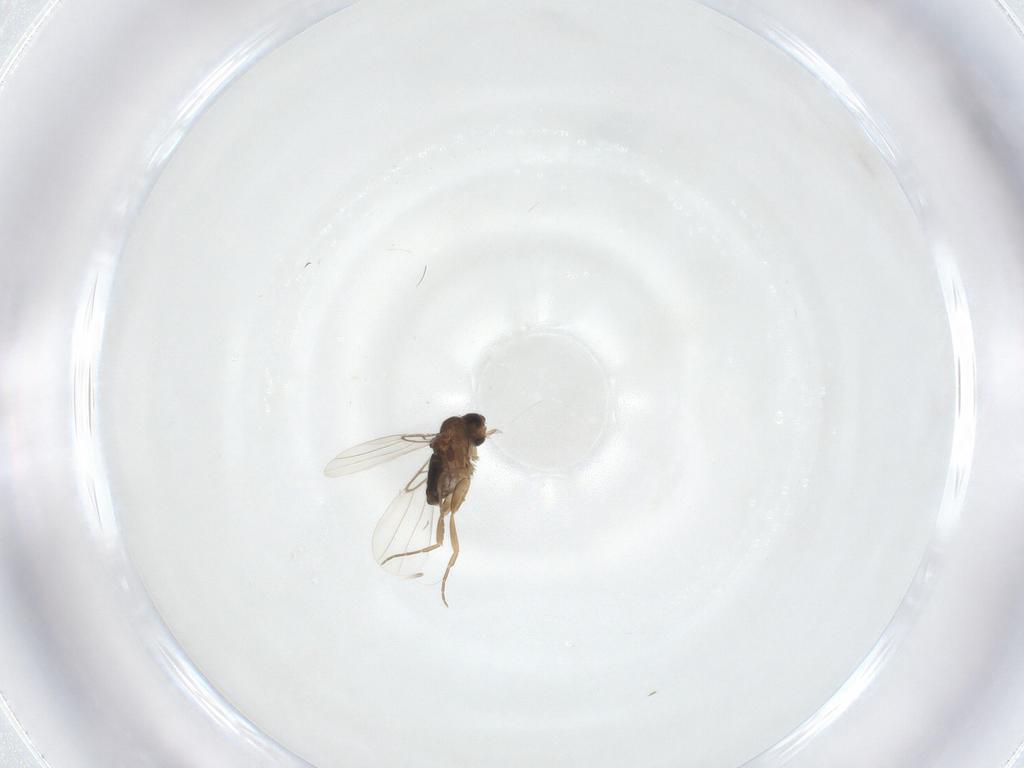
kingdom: Animalia
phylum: Arthropoda
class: Insecta
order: Diptera
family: Phoridae
